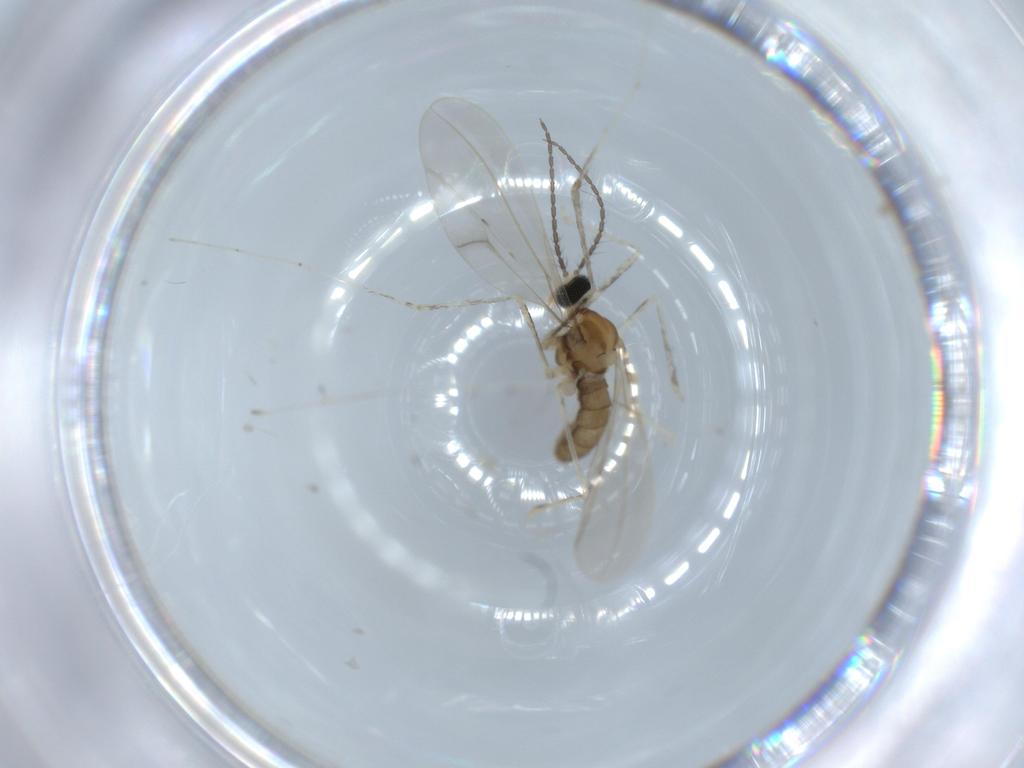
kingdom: Animalia
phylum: Arthropoda
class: Insecta
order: Diptera
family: Cecidomyiidae
